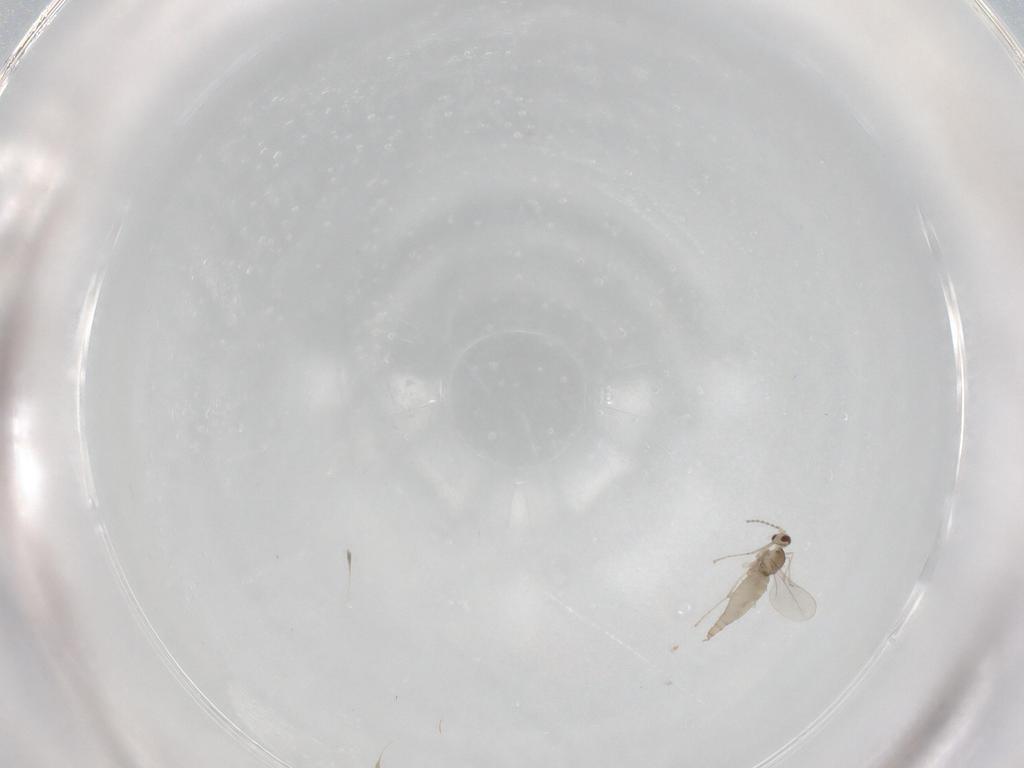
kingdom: Animalia
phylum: Arthropoda
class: Insecta
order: Diptera
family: Cecidomyiidae
